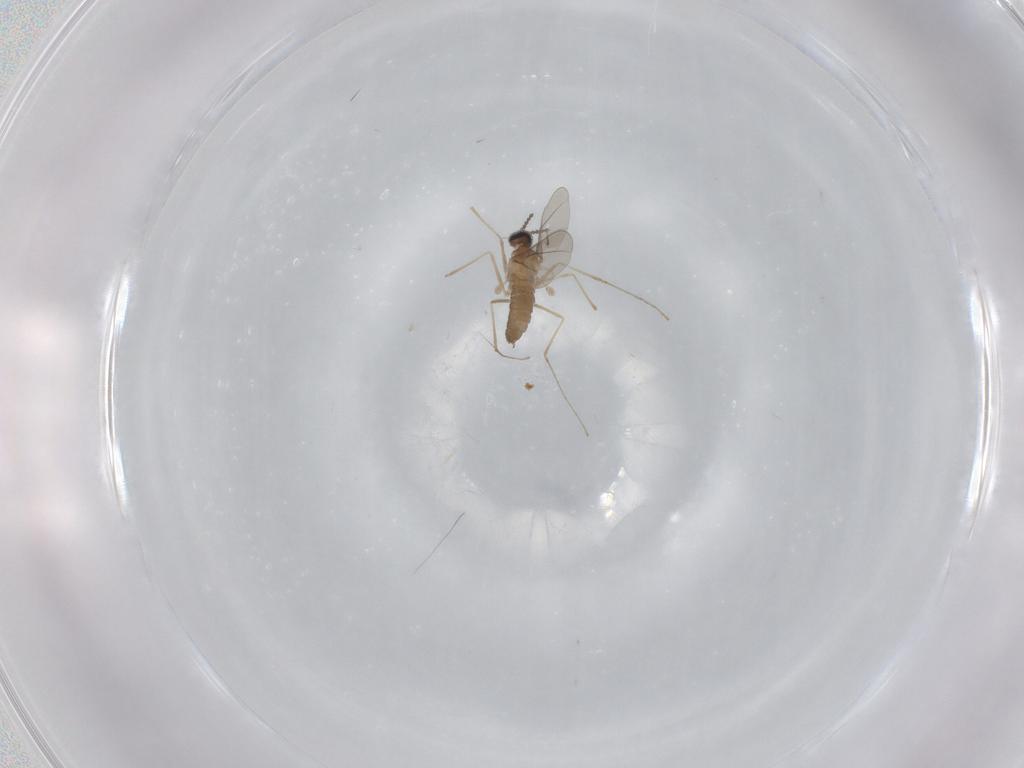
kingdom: Animalia
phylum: Arthropoda
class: Insecta
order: Diptera
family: Cecidomyiidae
